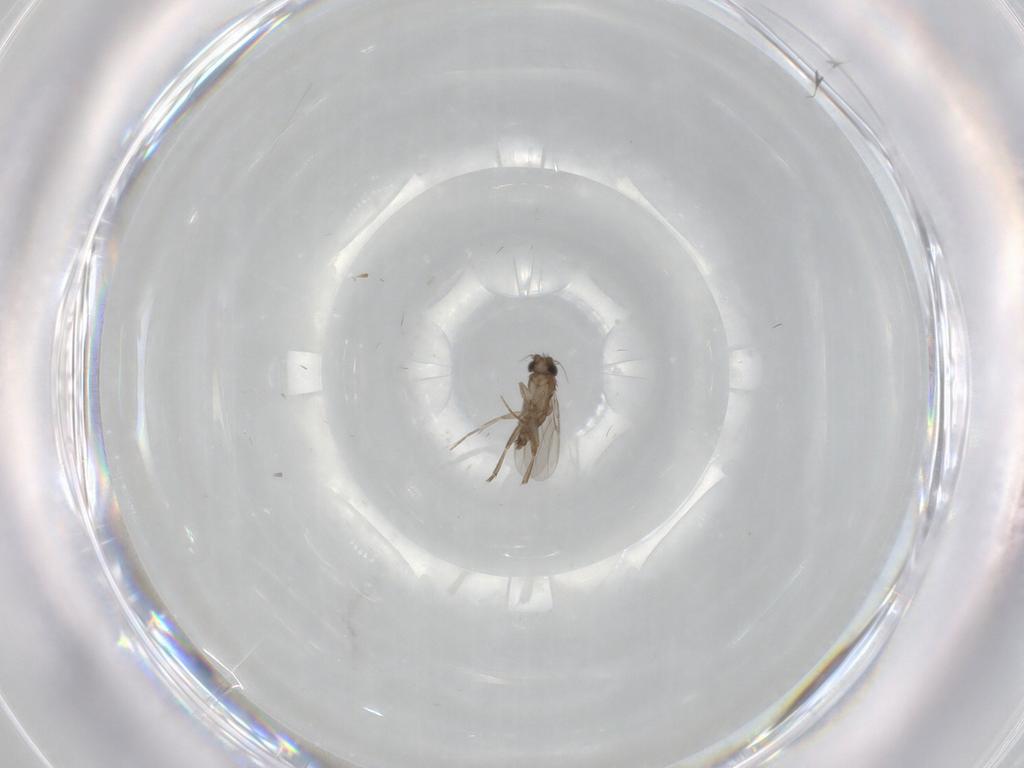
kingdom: Animalia
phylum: Arthropoda
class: Insecta
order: Diptera
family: Phoridae
